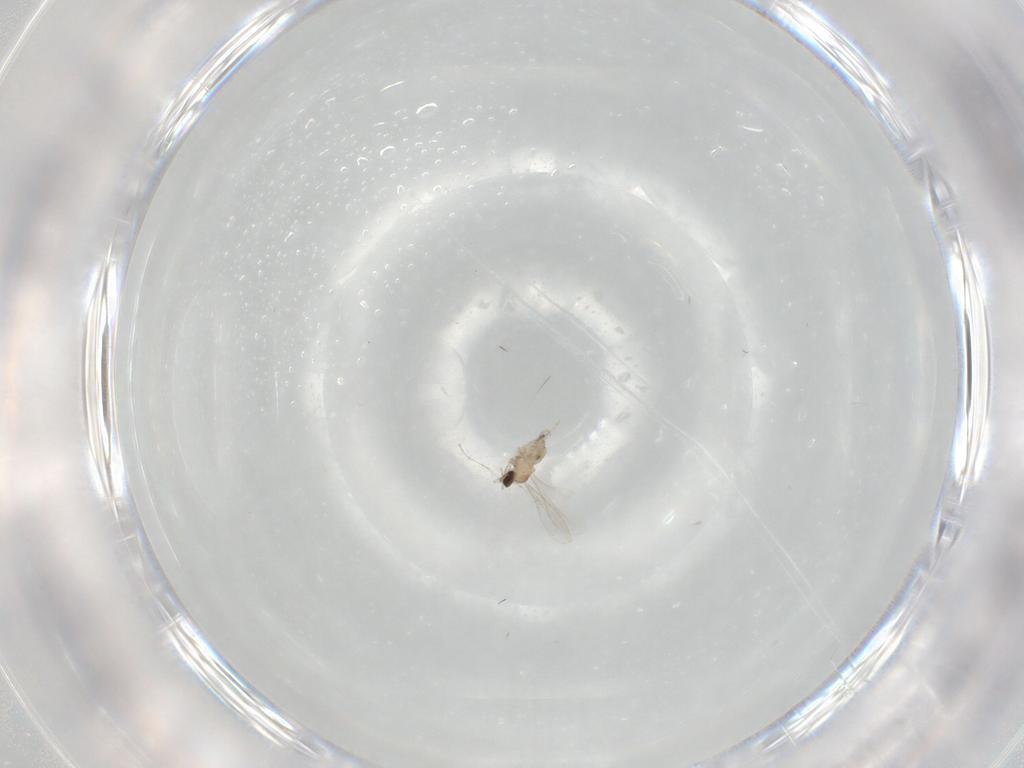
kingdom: Animalia
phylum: Arthropoda
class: Insecta
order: Diptera
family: Cecidomyiidae
